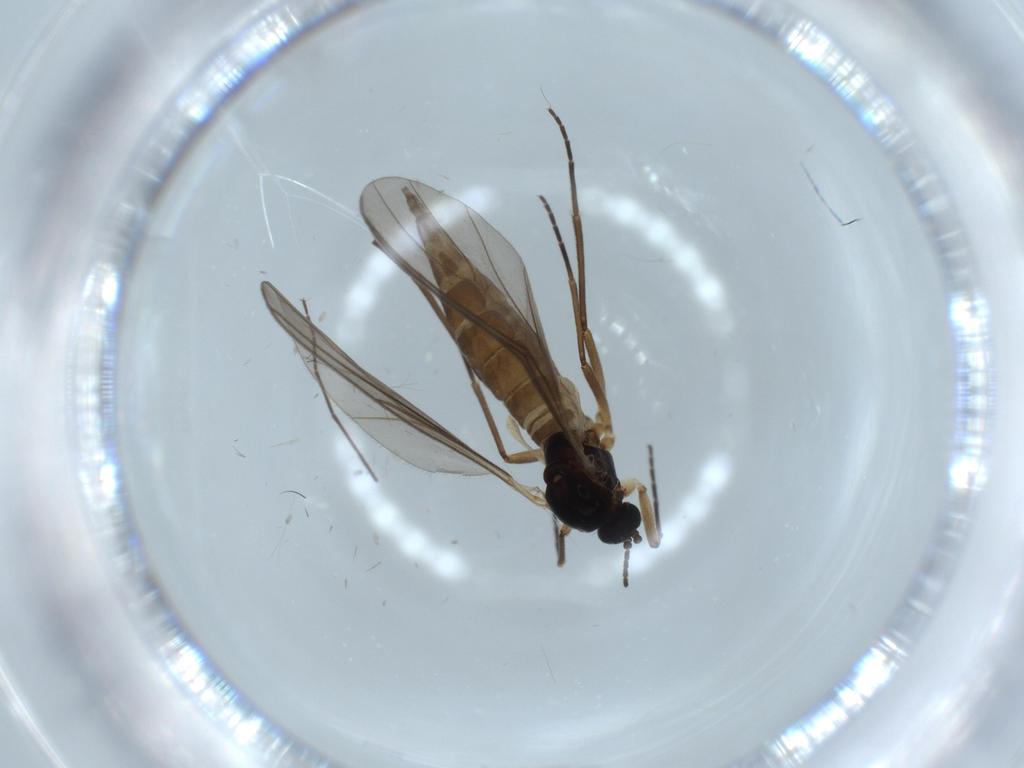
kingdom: Animalia
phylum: Arthropoda
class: Insecta
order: Diptera
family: Sciaridae
